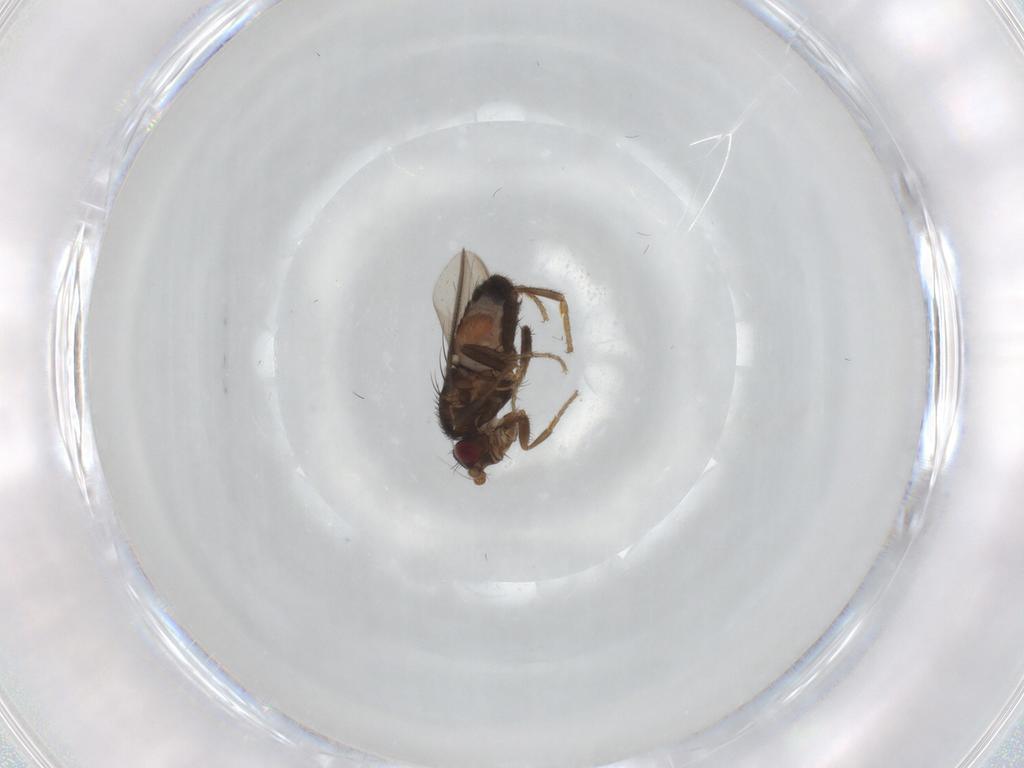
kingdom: Animalia
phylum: Arthropoda
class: Insecta
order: Diptera
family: Sphaeroceridae
